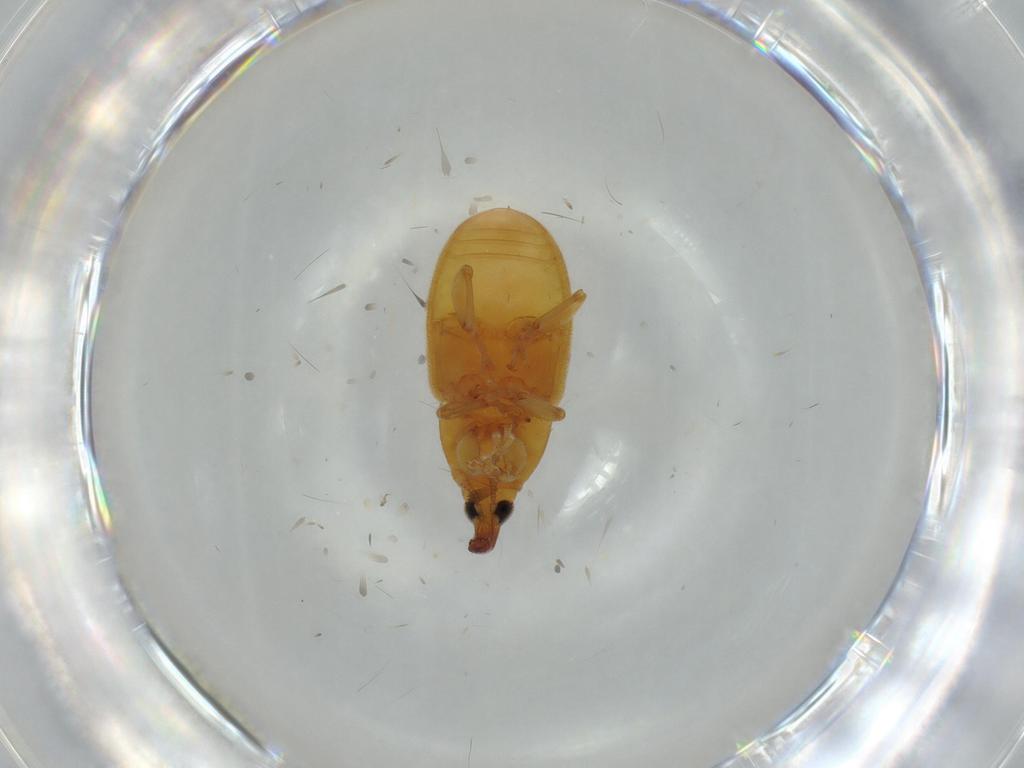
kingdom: Animalia
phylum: Arthropoda
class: Insecta
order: Coleoptera
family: Curculionidae
